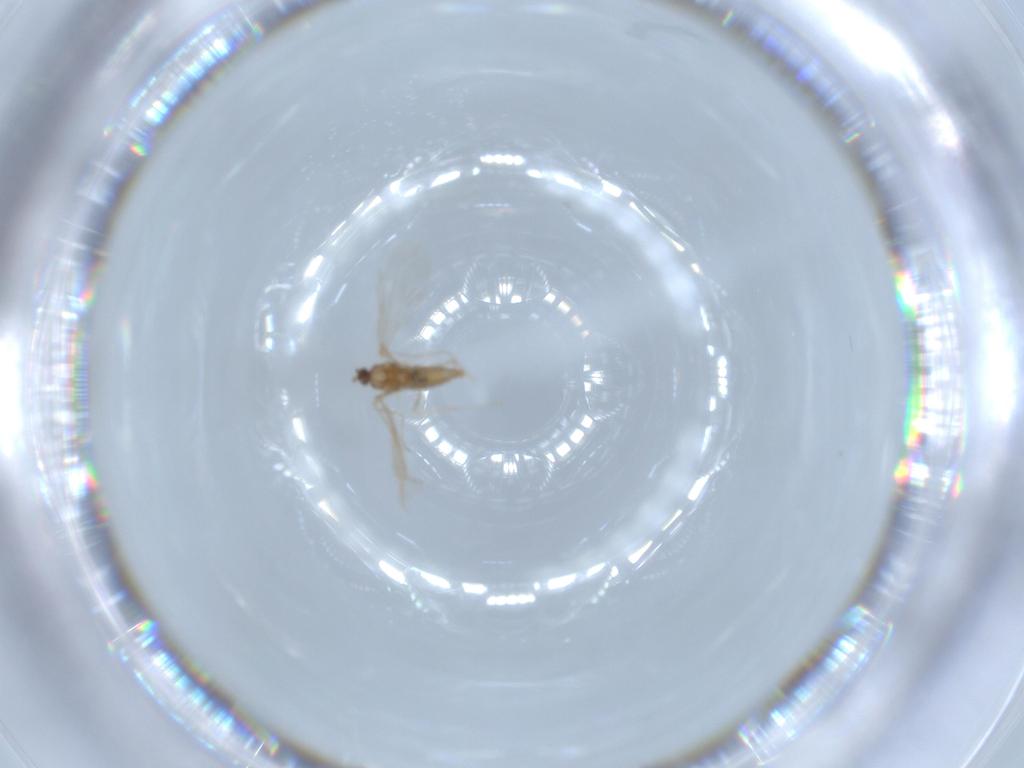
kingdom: Animalia
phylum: Arthropoda
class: Insecta
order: Diptera
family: Cecidomyiidae
